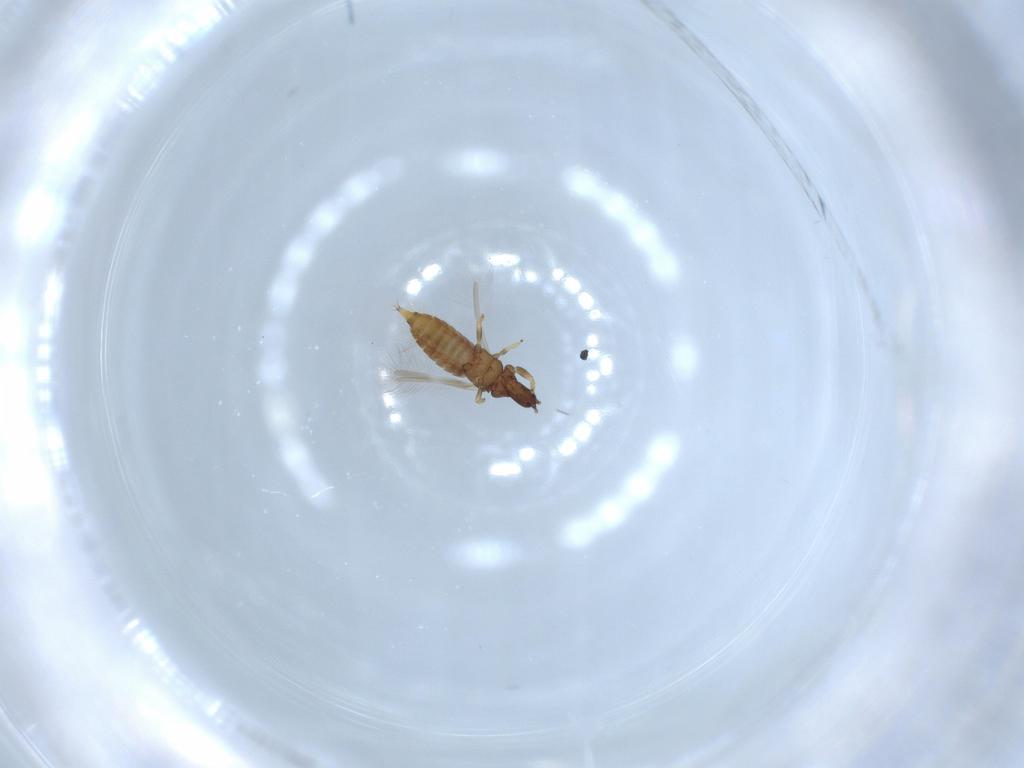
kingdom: Animalia
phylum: Arthropoda
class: Insecta
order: Thysanoptera
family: Phlaeothripidae
